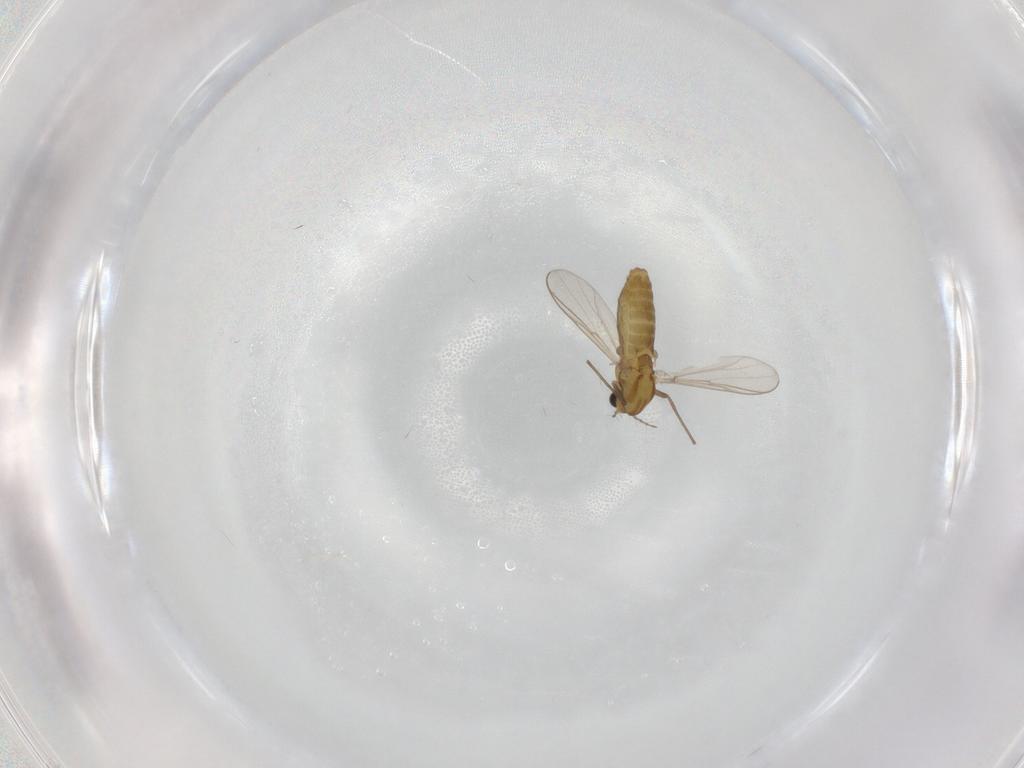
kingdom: Animalia
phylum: Arthropoda
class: Insecta
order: Diptera
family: Chironomidae
